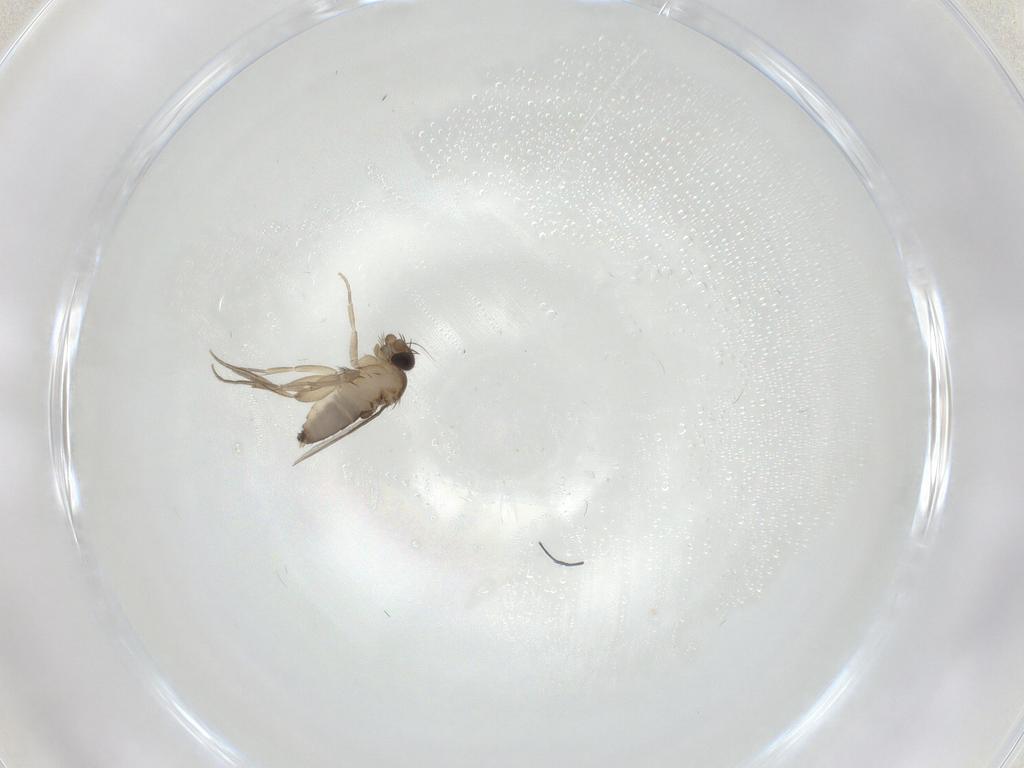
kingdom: Animalia
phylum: Arthropoda
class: Insecta
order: Diptera
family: Phoridae
